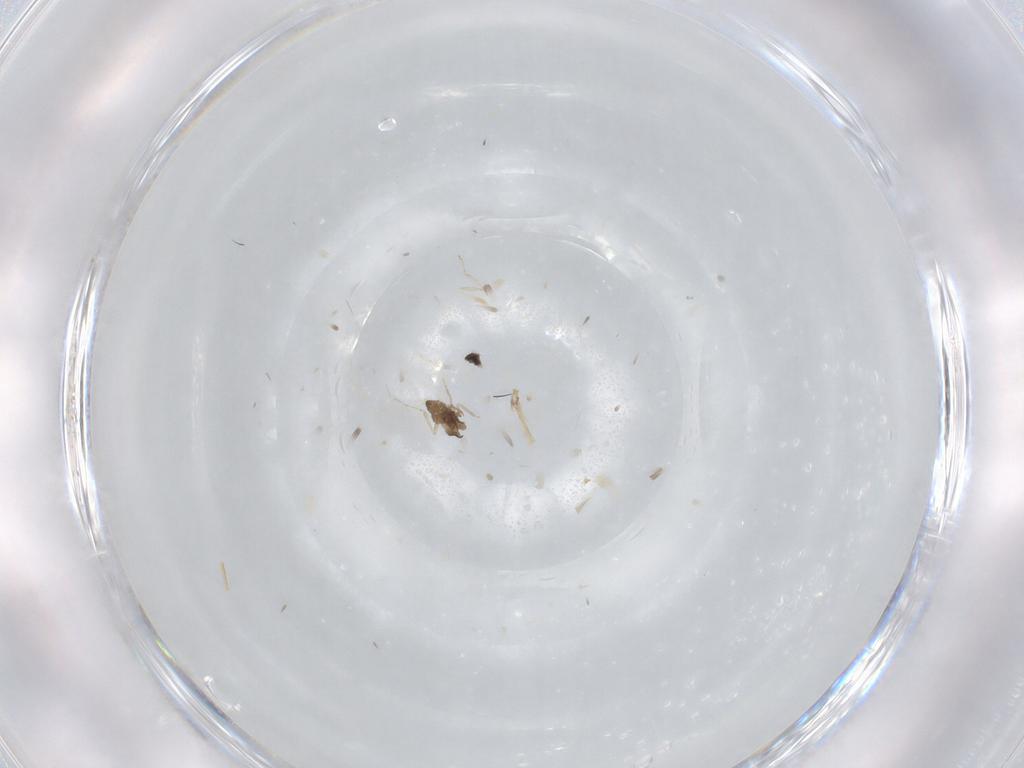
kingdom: Animalia
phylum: Arthropoda
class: Insecta
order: Diptera
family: Cecidomyiidae
